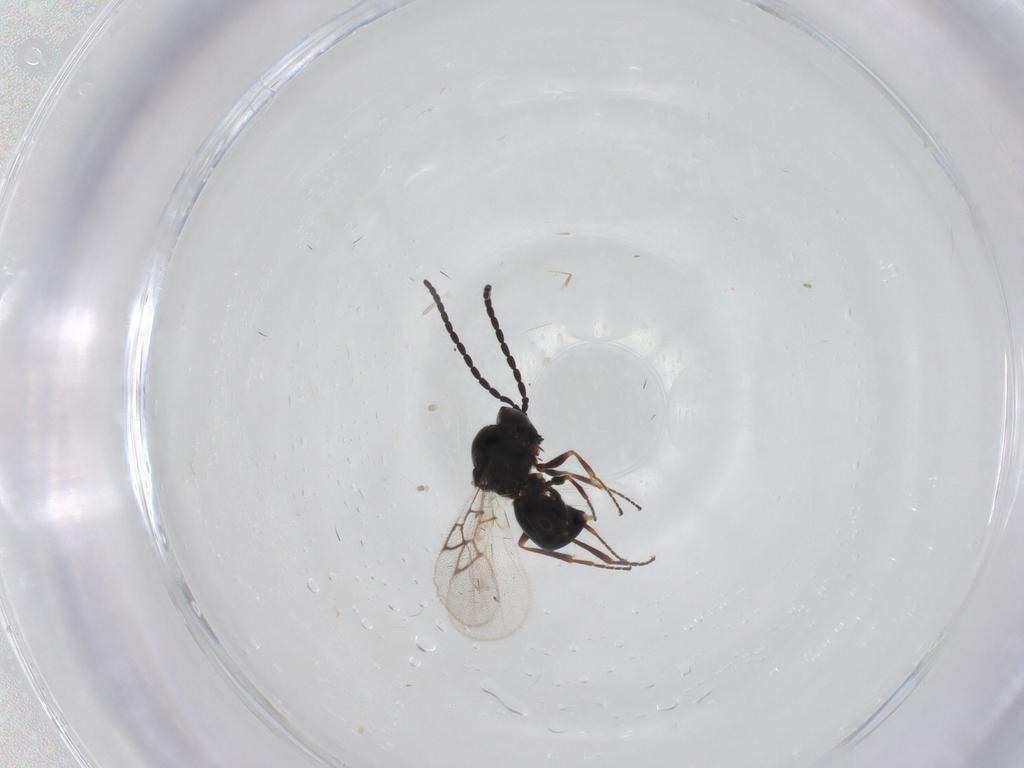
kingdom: Animalia
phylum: Arthropoda
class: Insecta
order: Hymenoptera
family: Figitidae
